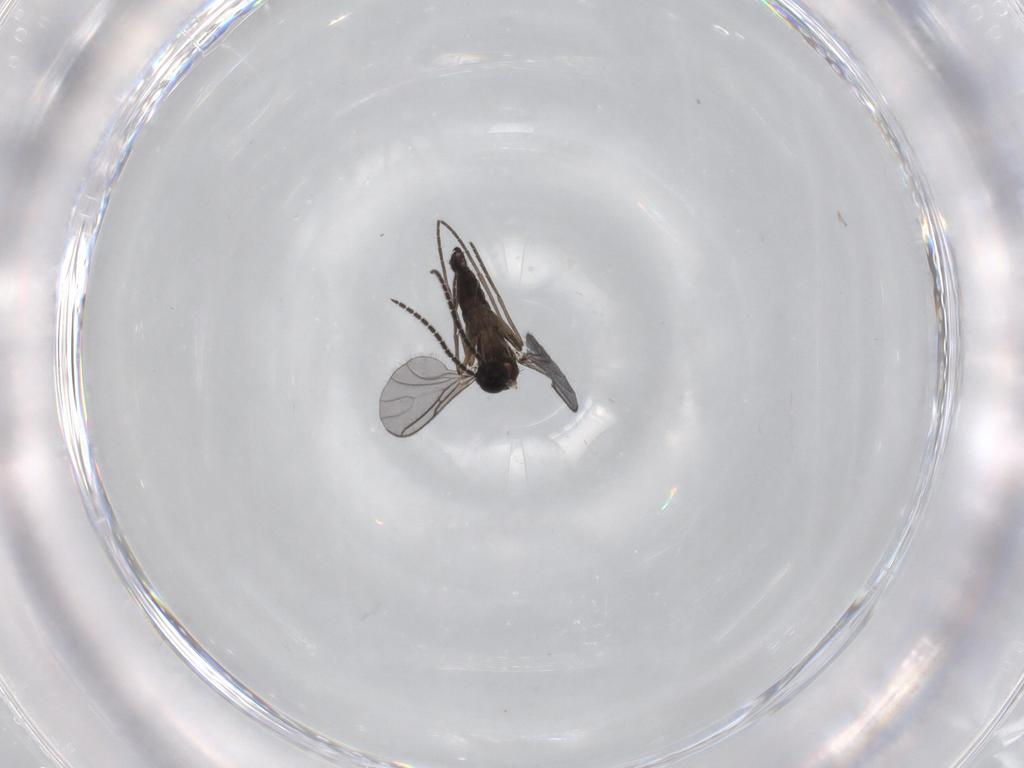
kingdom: Animalia
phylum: Arthropoda
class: Insecta
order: Diptera
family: Sciaridae
